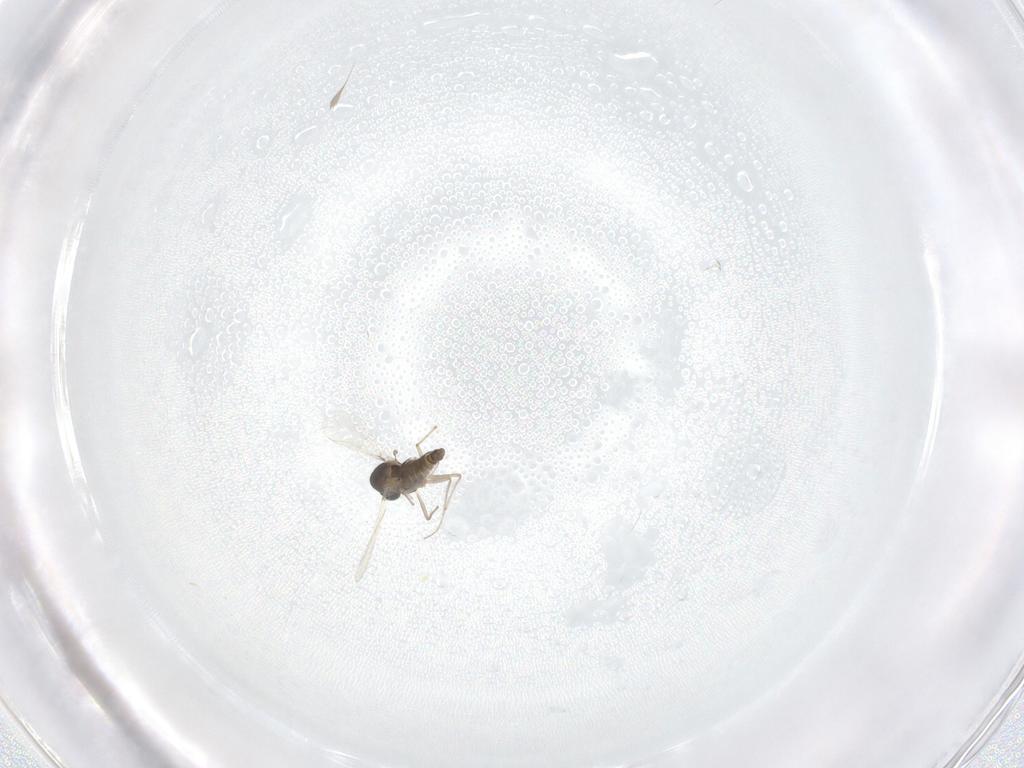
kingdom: Animalia
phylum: Arthropoda
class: Insecta
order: Diptera
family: Chironomidae
